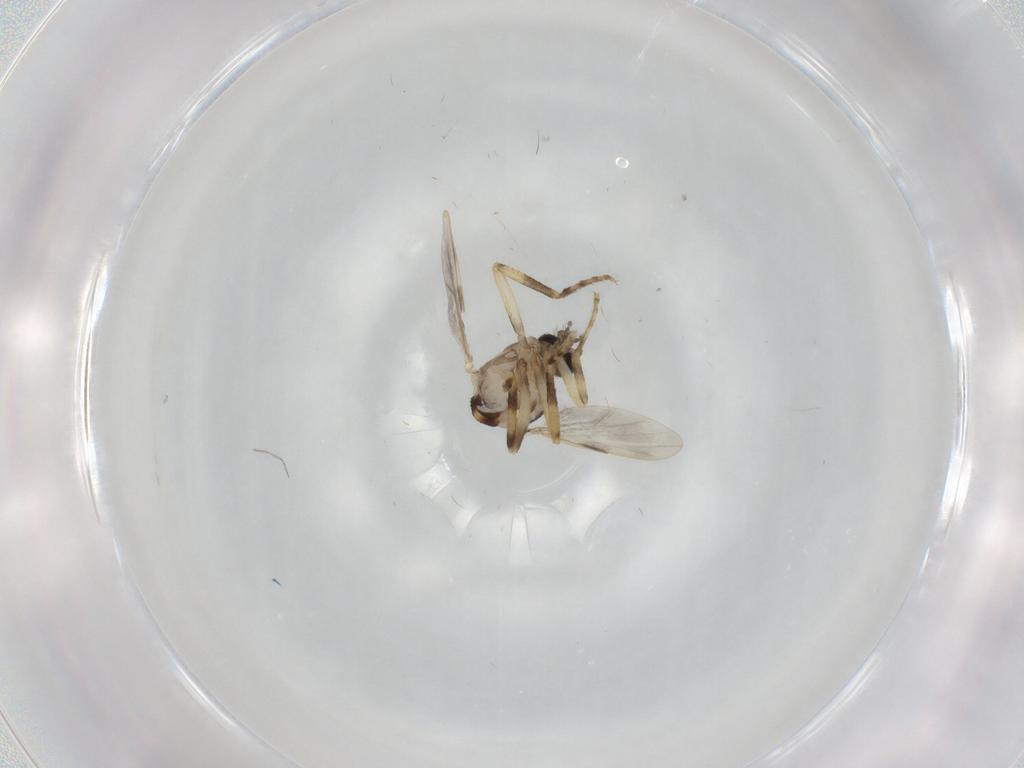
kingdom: Animalia
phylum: Arthropoda
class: Insecta
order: Diptera
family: Ceratopogonidae
